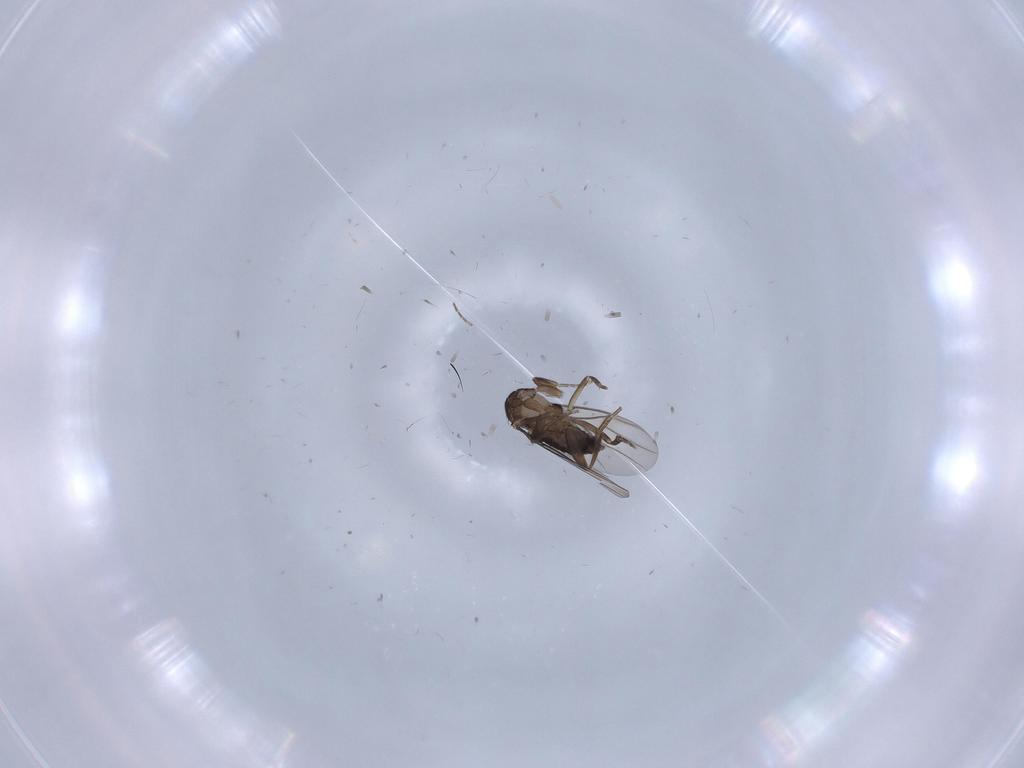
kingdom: Animalia
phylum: Arthropoda
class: Insecta
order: Diptera
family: Phoridae
